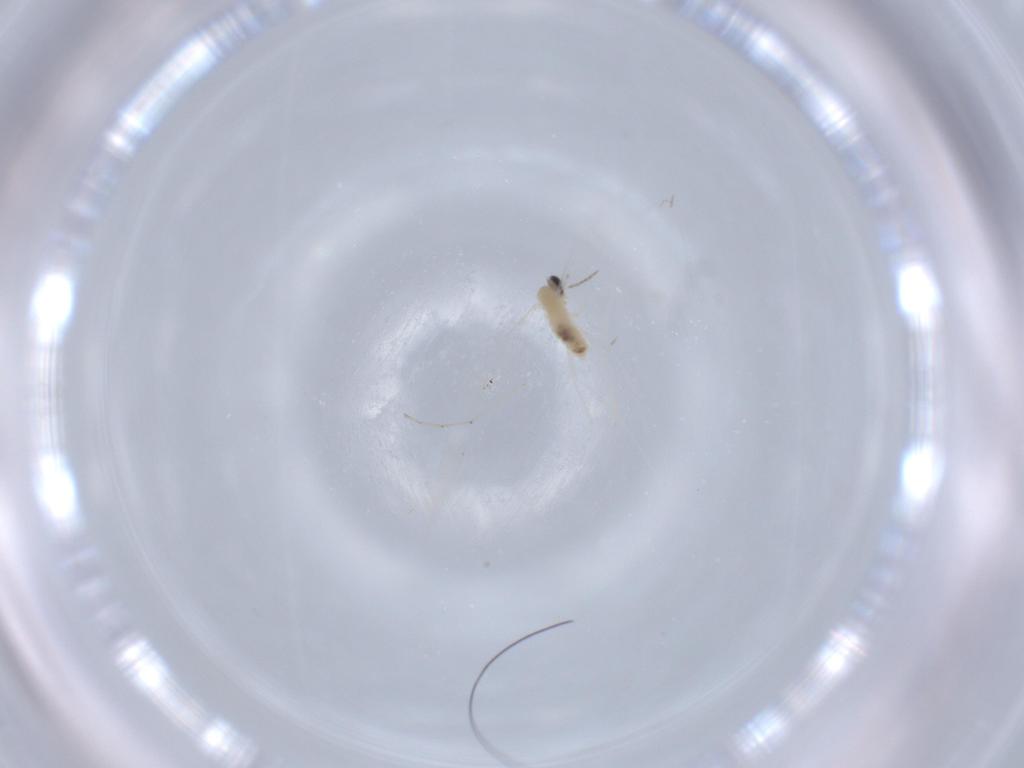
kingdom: Animalia
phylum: Arthropoda
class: Insecta
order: Diptera
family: Cecidomyiidae
